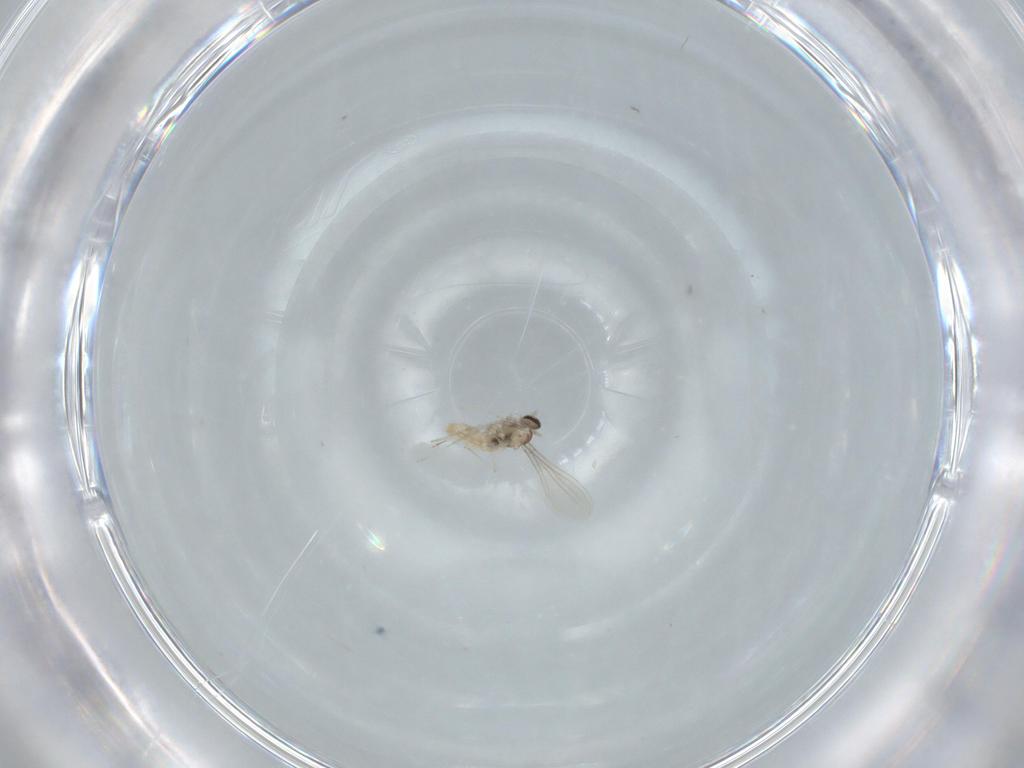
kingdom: Animalia
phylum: Arthropoda
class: Insecta
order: Diptera
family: Cecidomyiidae
